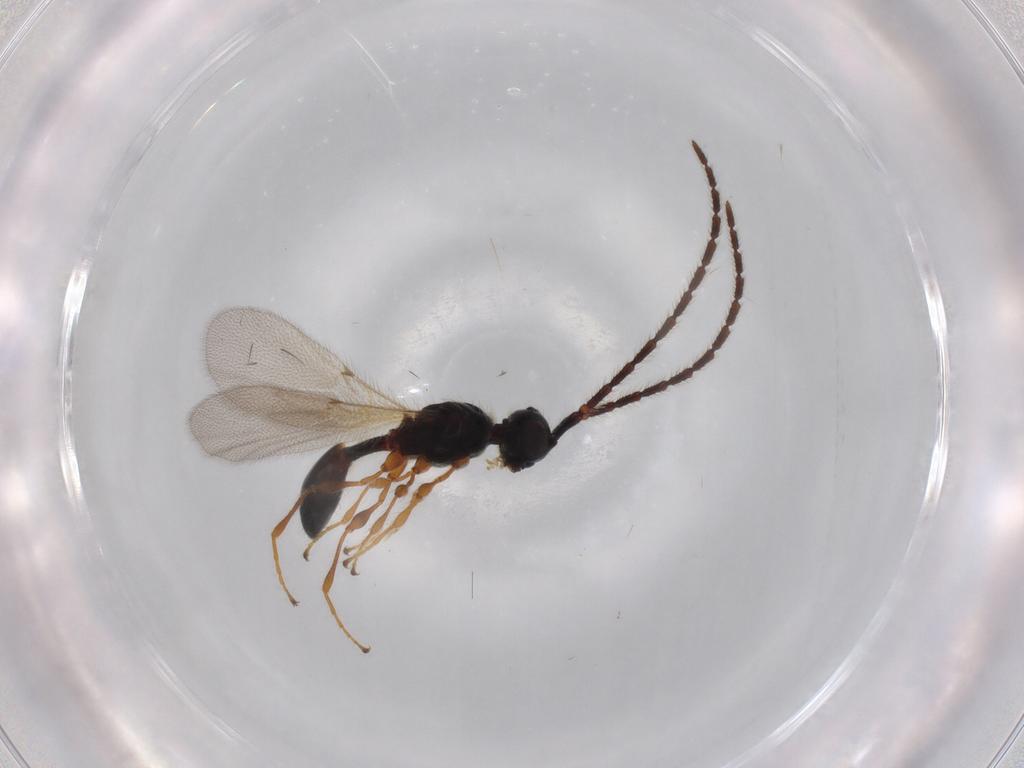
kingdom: Animalia
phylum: Arthropoda
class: Insecta
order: Hymenoptera
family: Diapriidae
